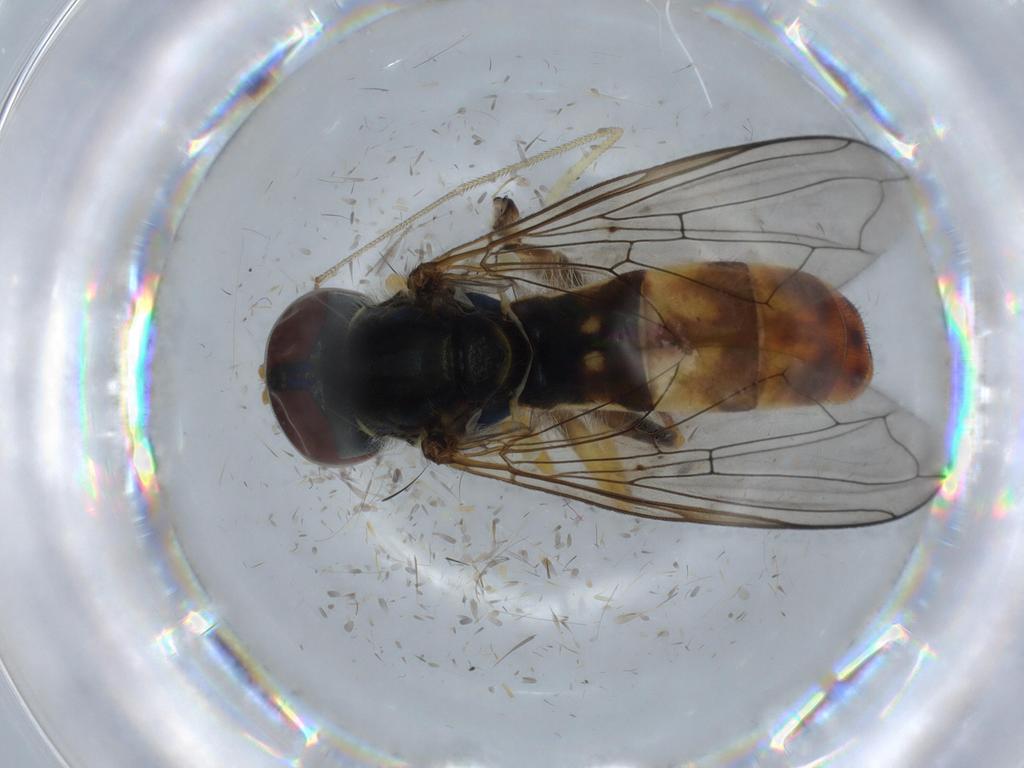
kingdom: Animalia
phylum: Arthropoda
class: Insecta
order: Diptera
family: Syrphidae
